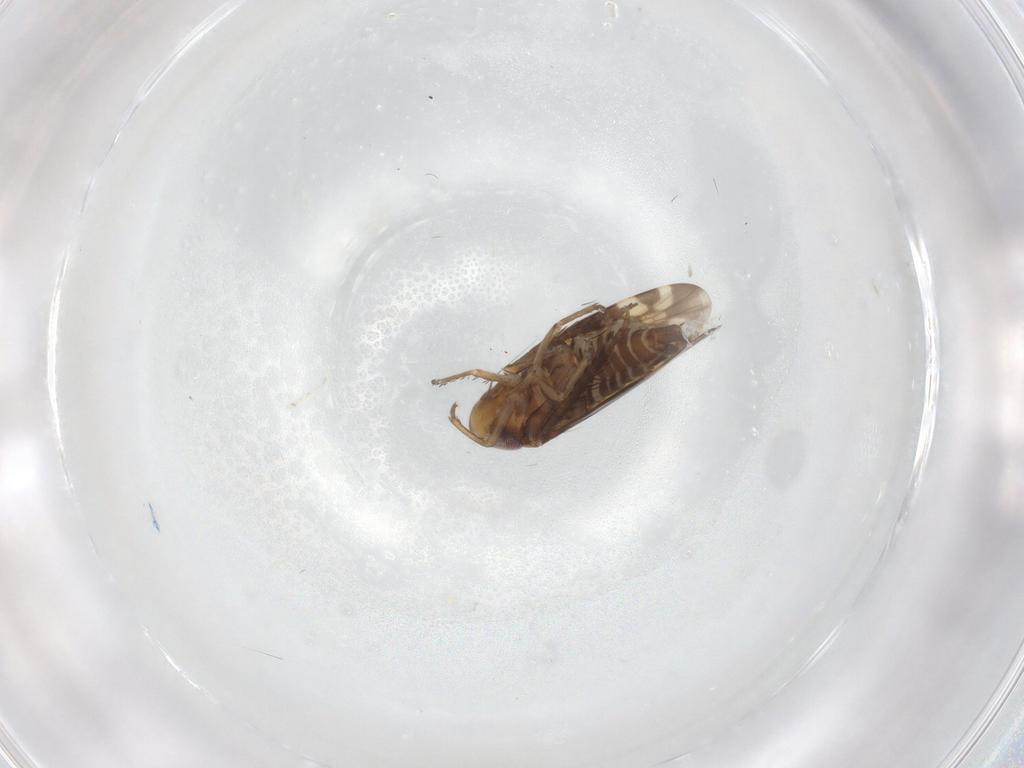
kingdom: Animalia
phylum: Arthropoda
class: Insecta
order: Hemiptera
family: Cicadellidae
